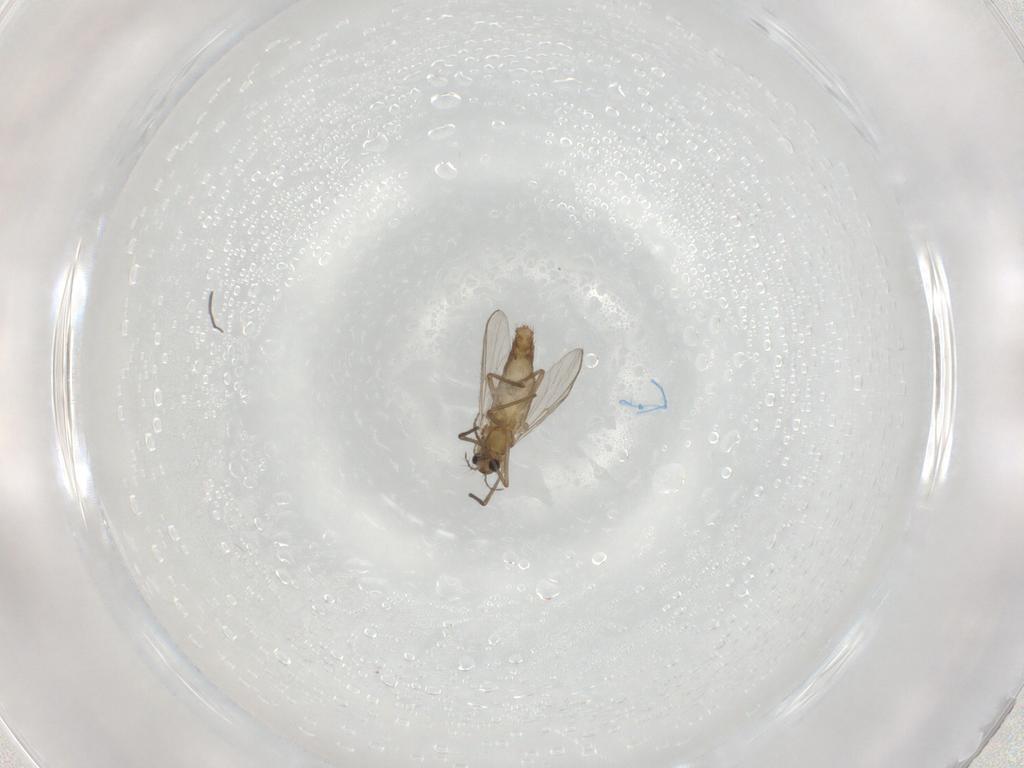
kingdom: Animalia
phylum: Arthropoda
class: Insecta
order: Diptera
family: Chironomidae
